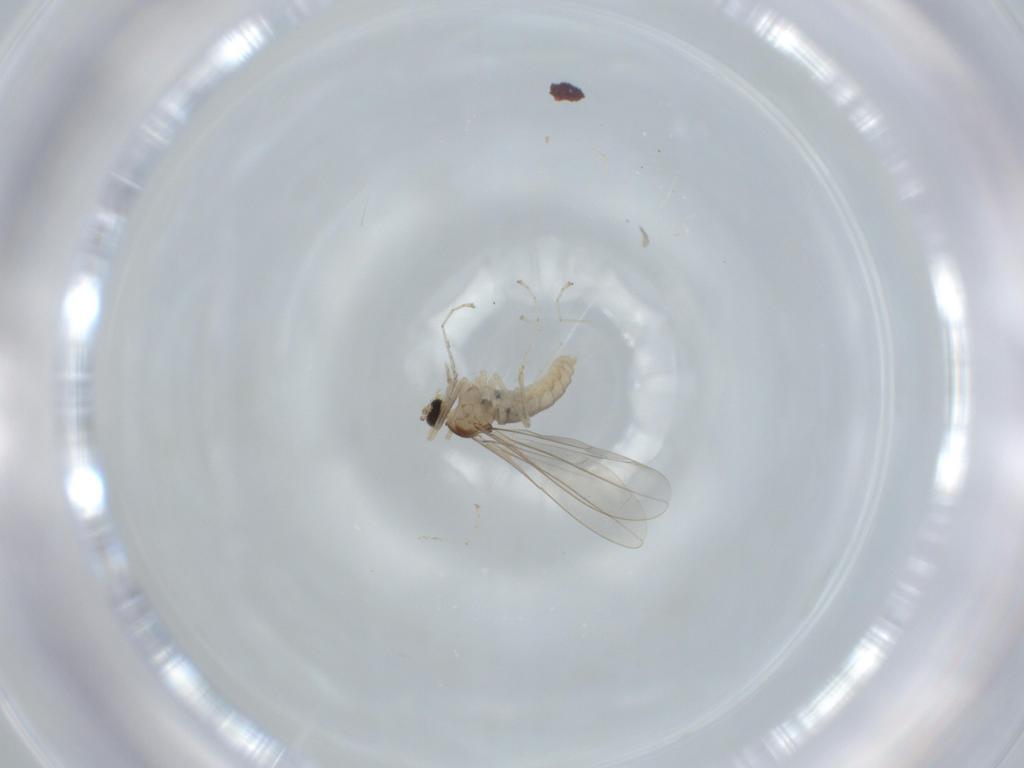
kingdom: Animalia
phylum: Arthropoda
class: Insecta
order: Diptera
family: Cecidomyiidae
